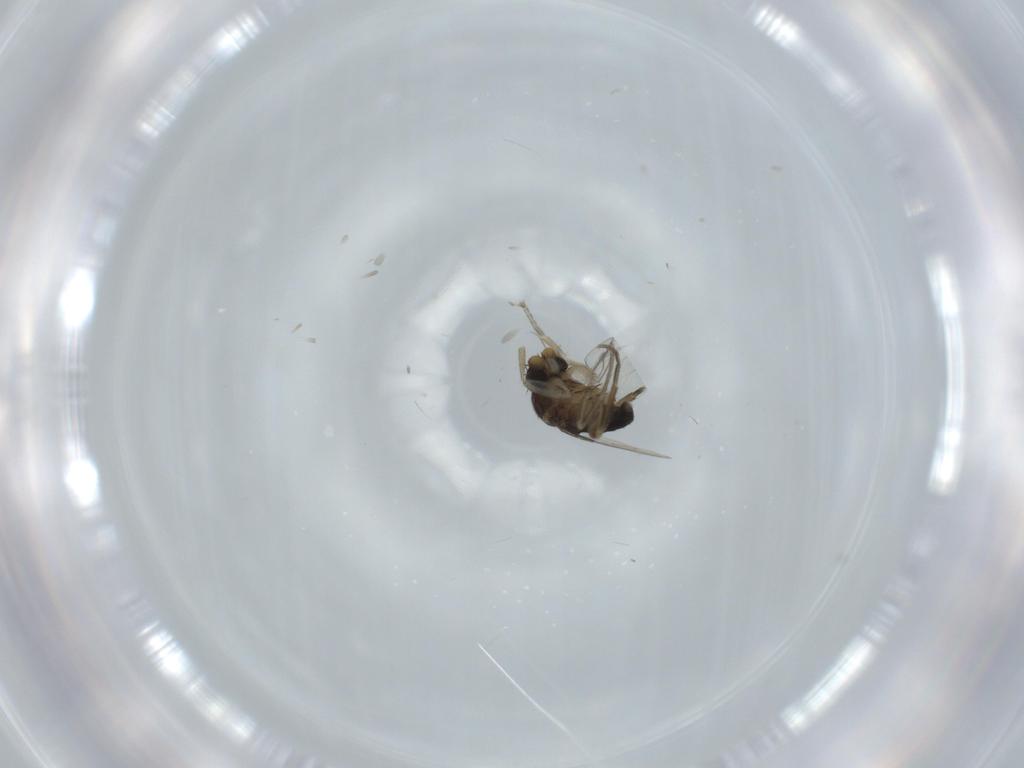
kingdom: Animalia
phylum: Arthropoda
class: Insecta
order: Diptera
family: Phoridae
